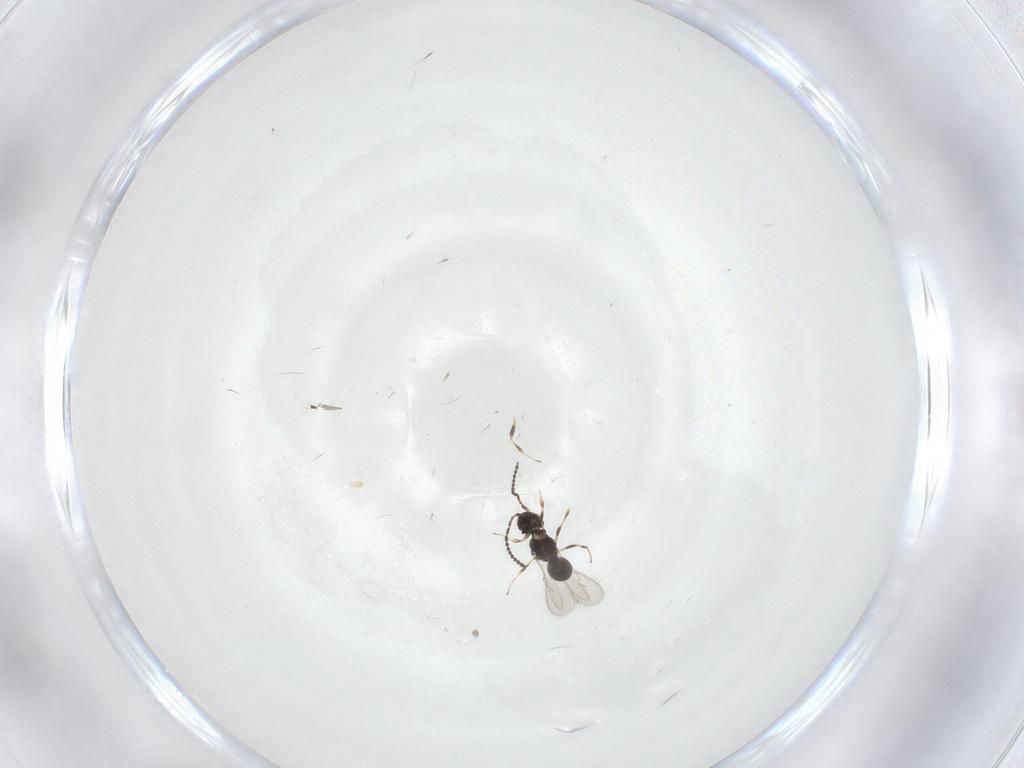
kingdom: Animalia
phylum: Arthropoda
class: Insecta
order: Hymenoptera
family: Scelionidae
